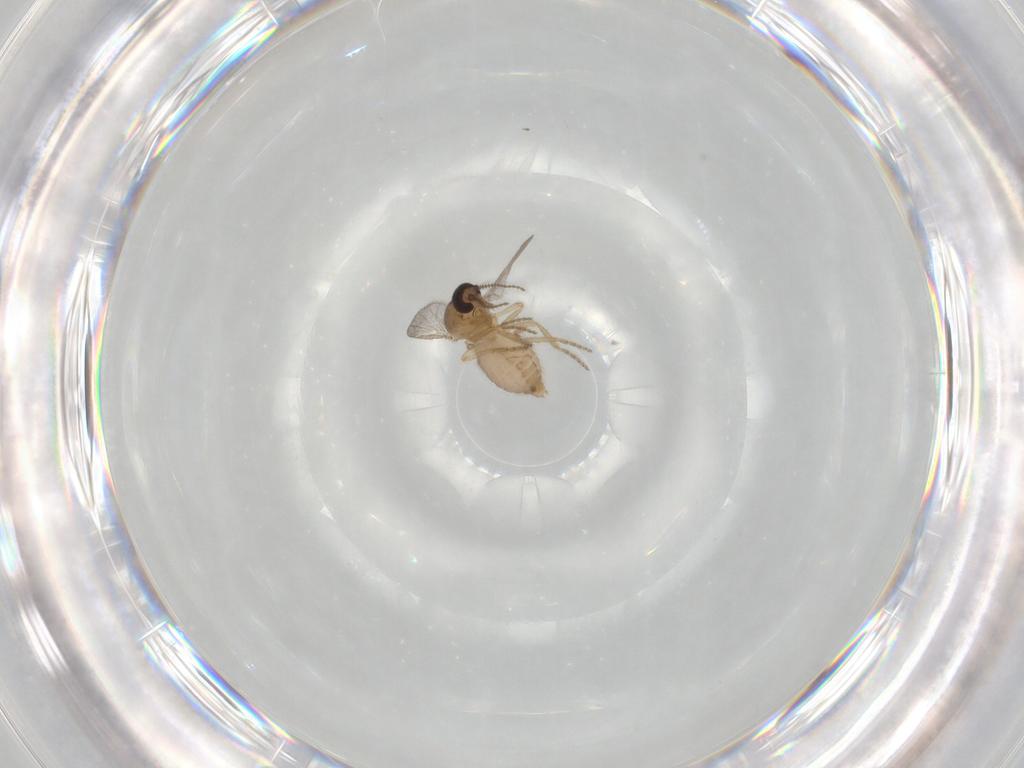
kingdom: Animalia
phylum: Arthropoda
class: Insecta
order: Diptera
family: Ceratopogonidae
